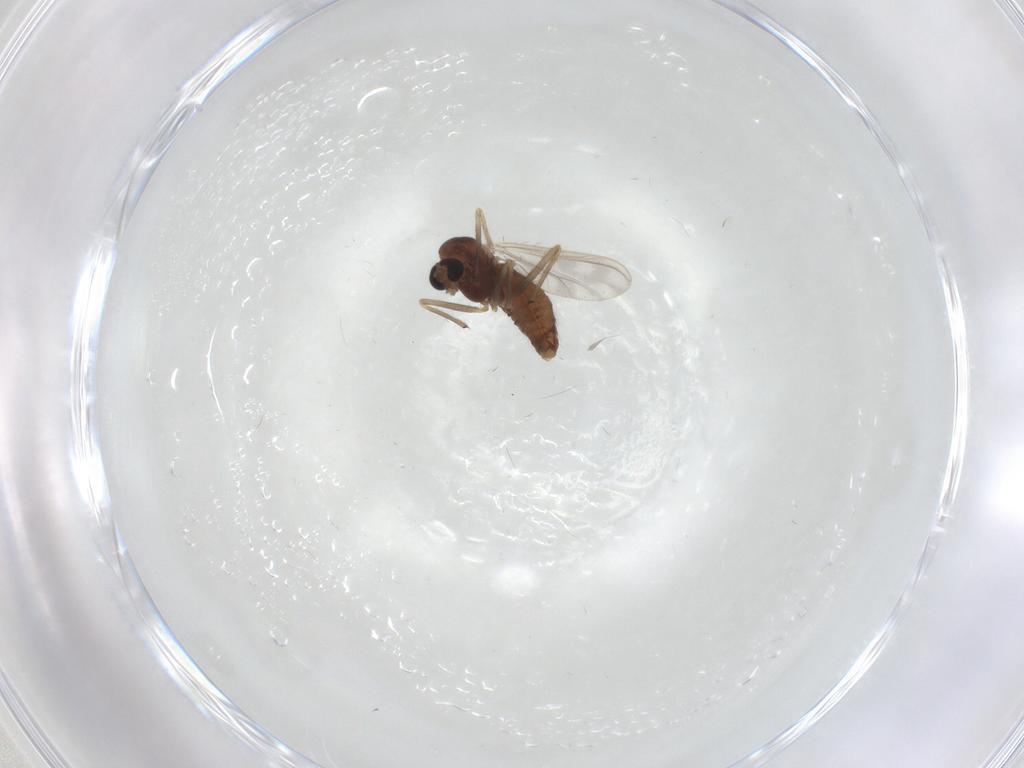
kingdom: Animalia
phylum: Arthropoda
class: Insecta
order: Diptera
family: Chironomidae
